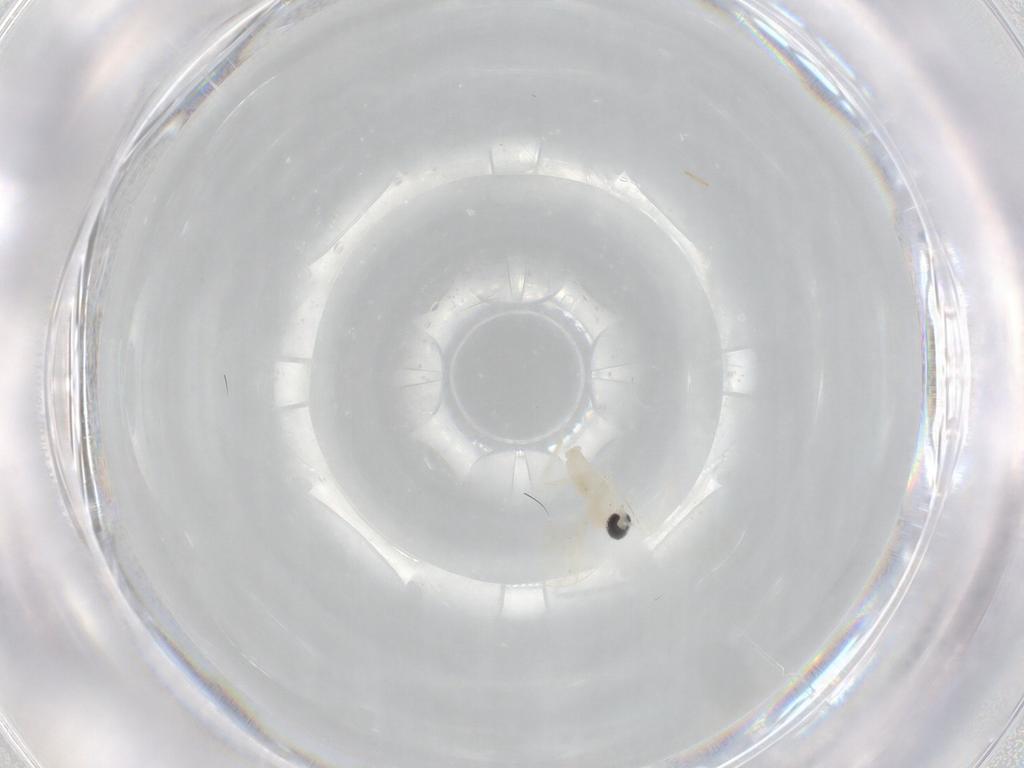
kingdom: Animalia
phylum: Arthropoda
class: Insecta
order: Diptera
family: Cecidomyiidae
